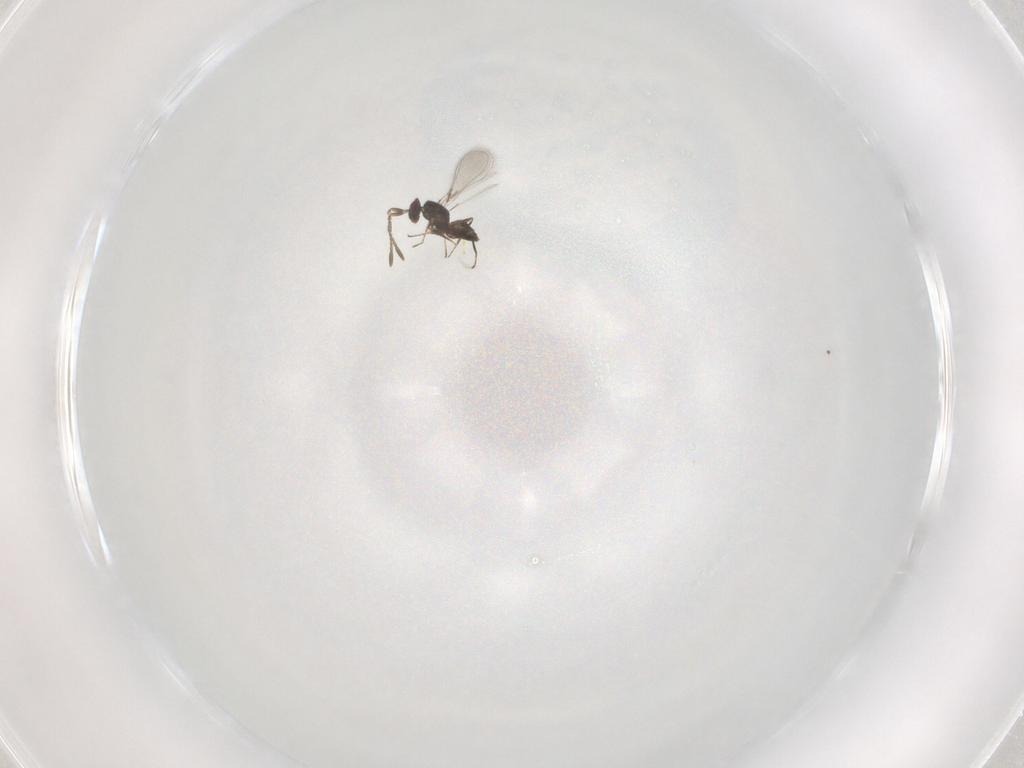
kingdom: Animalia
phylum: Arthropoda
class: Insecta
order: Hymenoptera
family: Mymaridae
